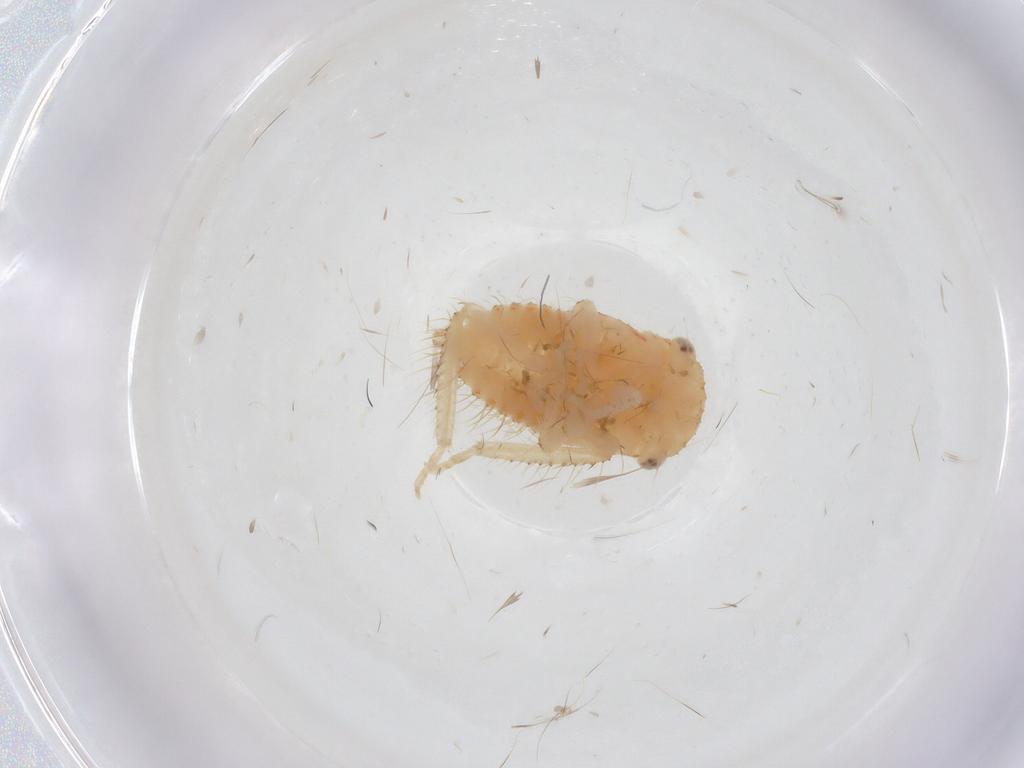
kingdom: Animalia
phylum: Arthropoda
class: Insecta
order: Hemiptera
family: Cicadellidae
